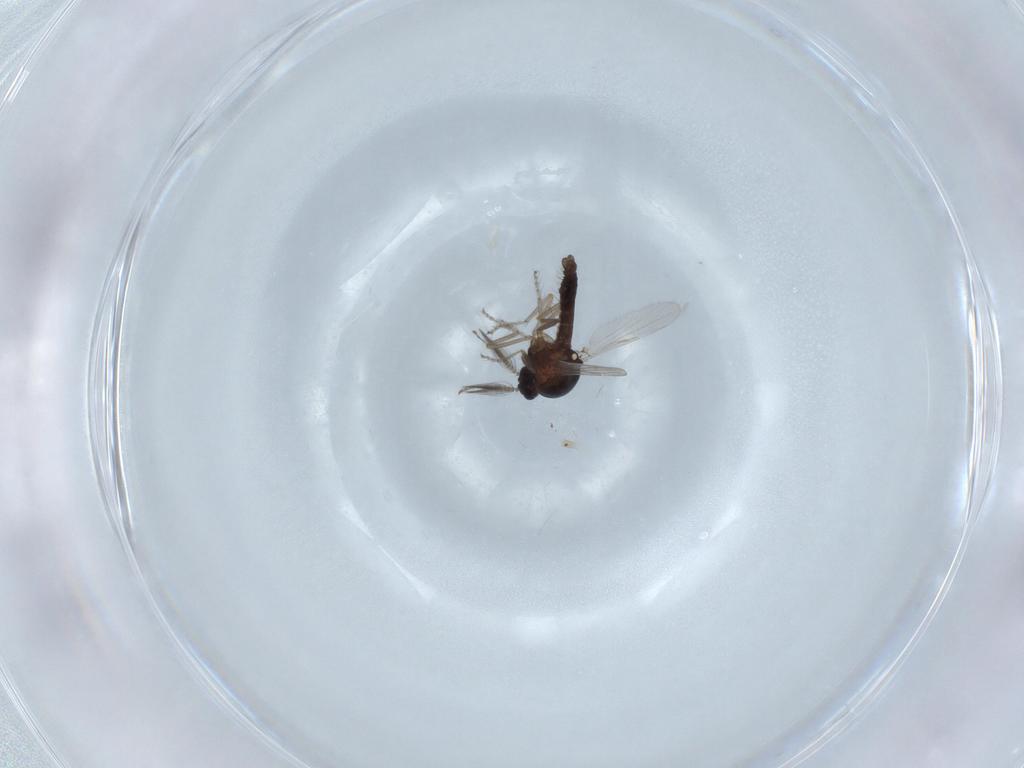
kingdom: Animalia
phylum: Arthropoda
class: Insecta
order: Diptera
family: Ceratopogonidae
